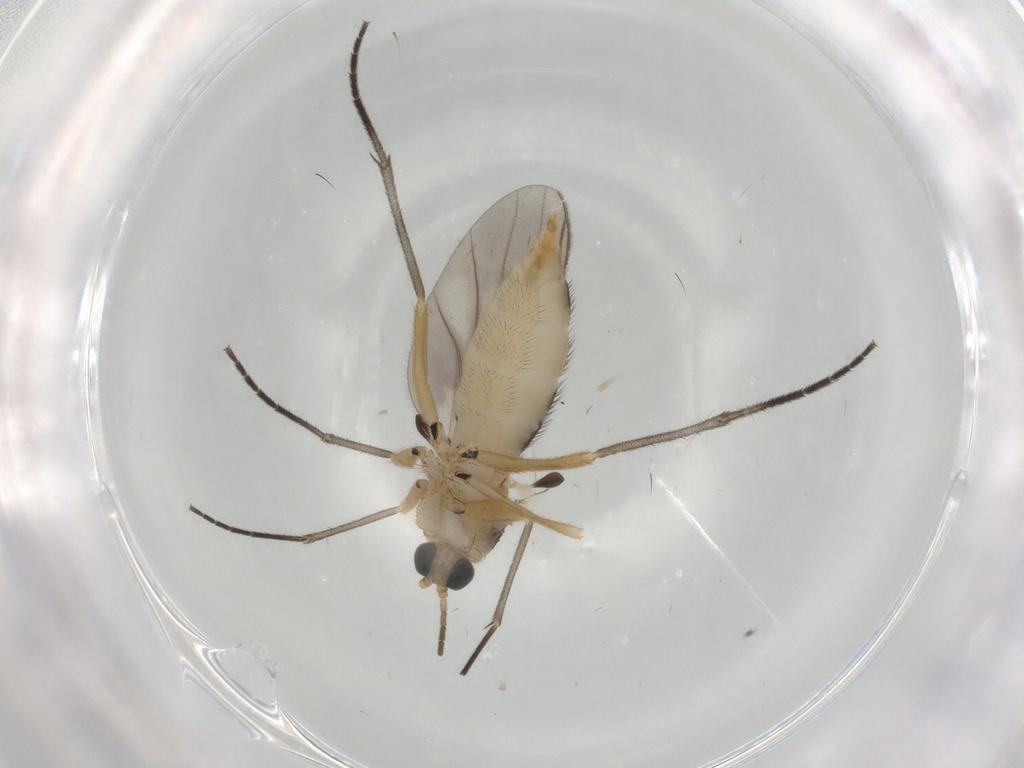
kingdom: Animalia
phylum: Arthropoda
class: Insecta
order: Diptera
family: Sciaridae
